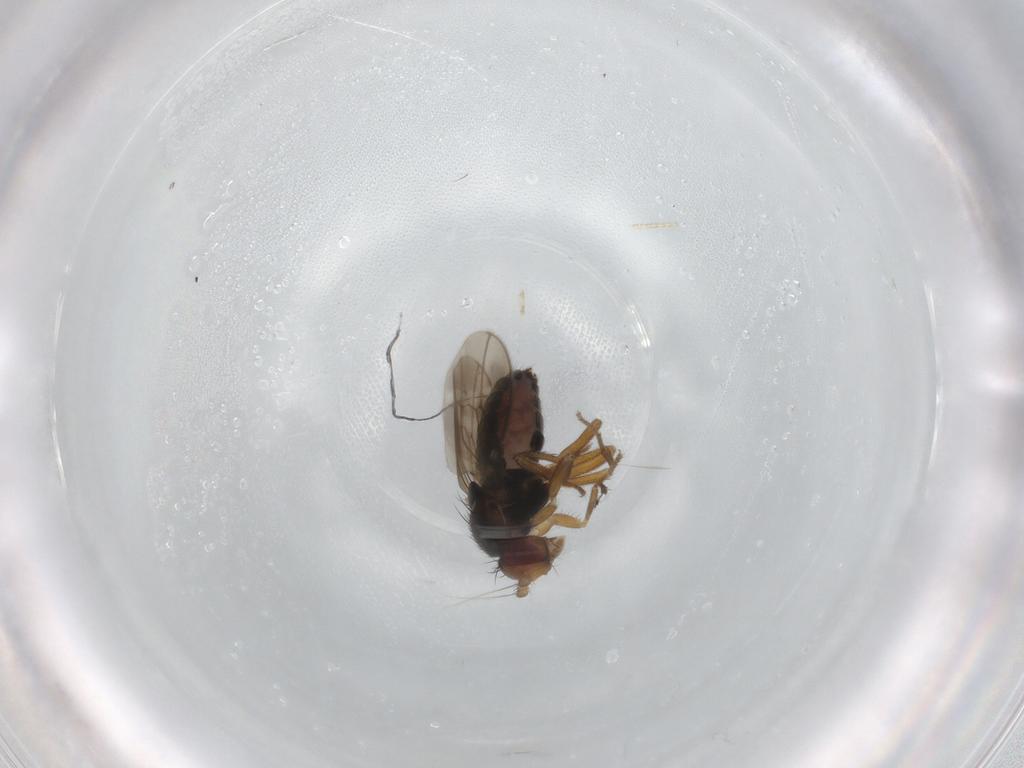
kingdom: Animalia
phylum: Arthropoda
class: Insecta
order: Diptera
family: Sphaeroceridae
